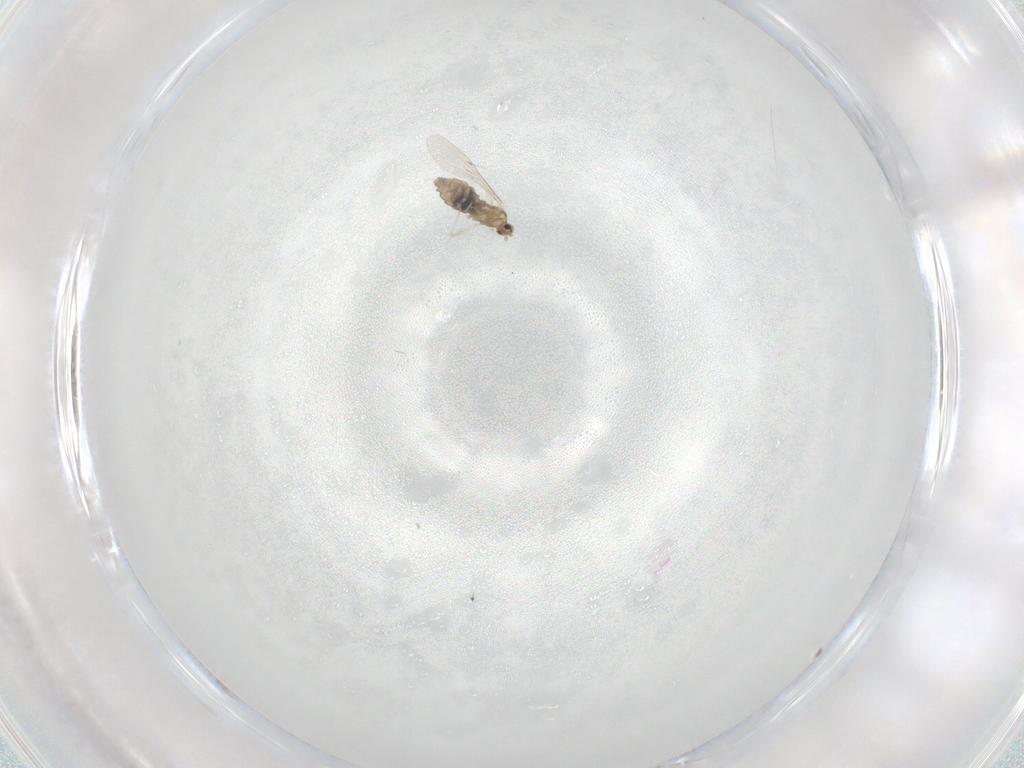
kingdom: Animalia
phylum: Arthropoda
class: Insecta
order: Diptera
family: Cecidomyiidae
